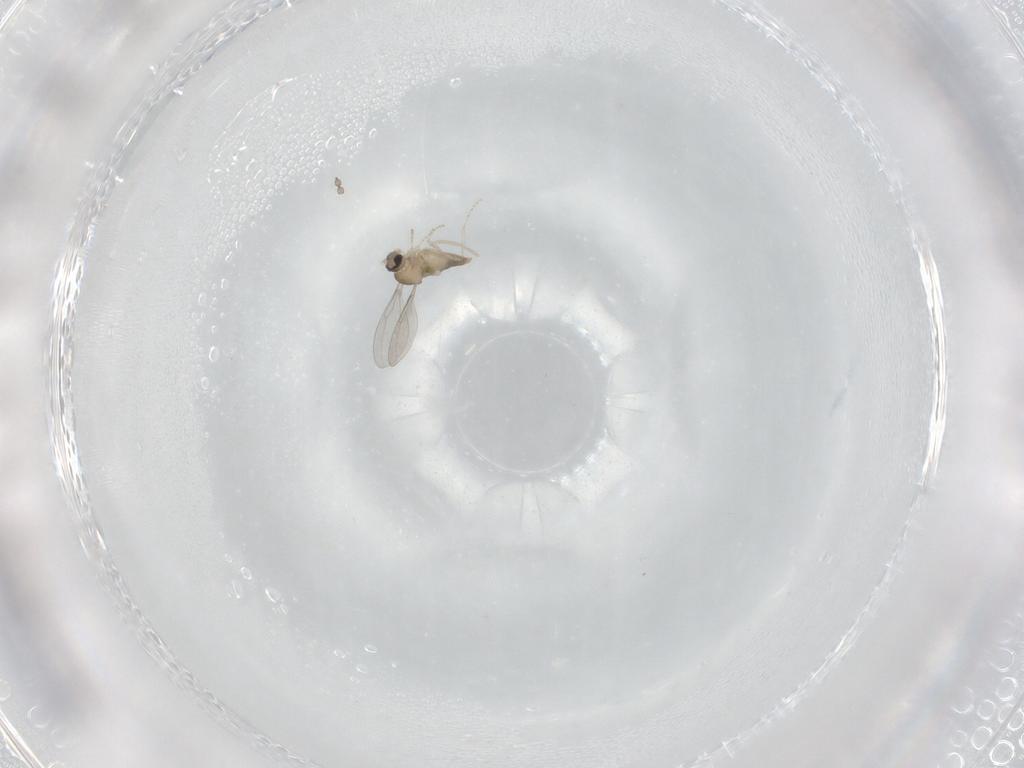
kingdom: Animalia
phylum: Arthropoda
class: Insecta
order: Diptera
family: Cecidomyiidae
